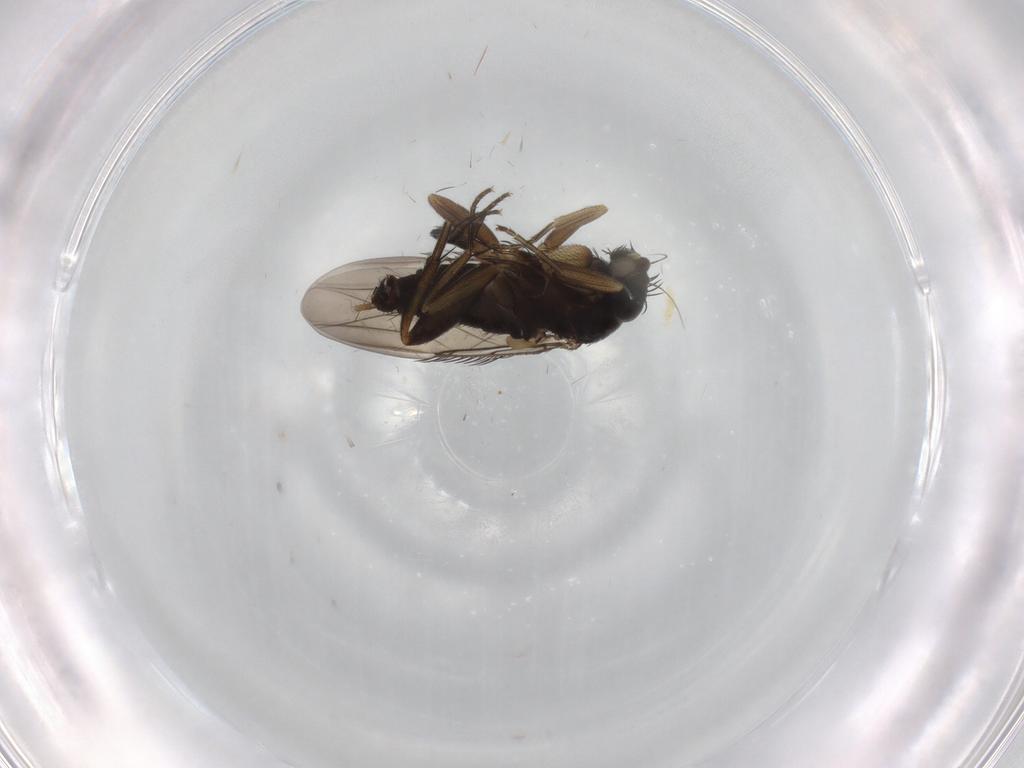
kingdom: Animalia
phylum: Arthropoda
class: Insecta
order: Diptera
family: Phoridae
